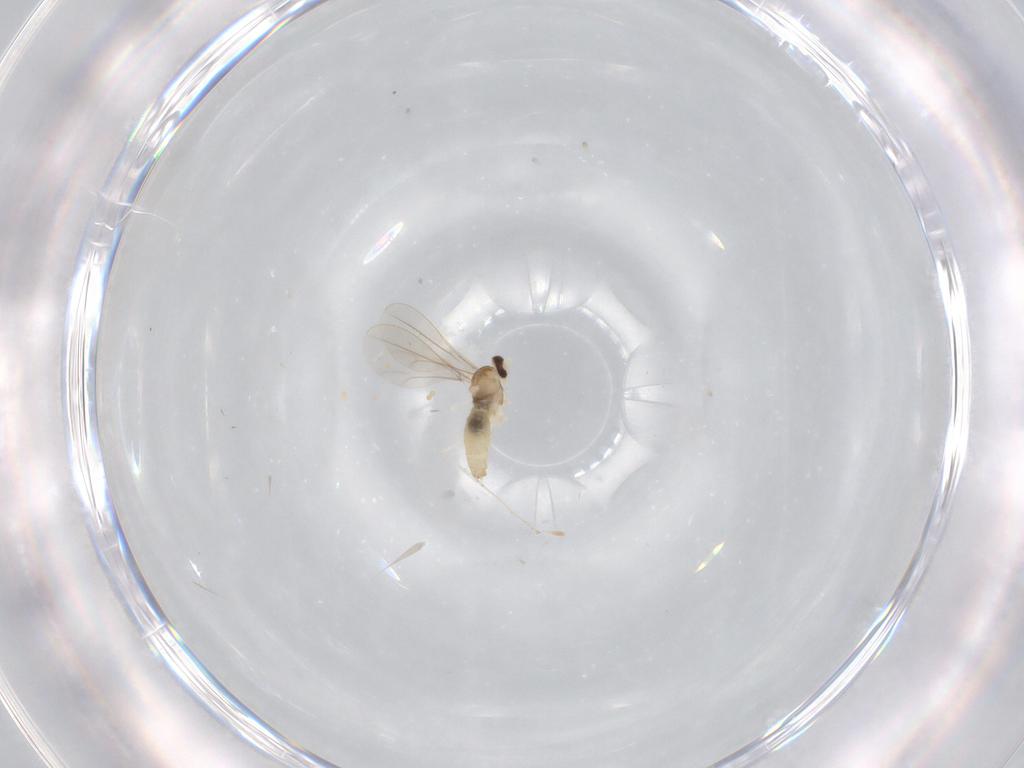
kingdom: Animalia
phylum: Arthropoda
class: Insecta
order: Diptera
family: Cecidomyiidae
